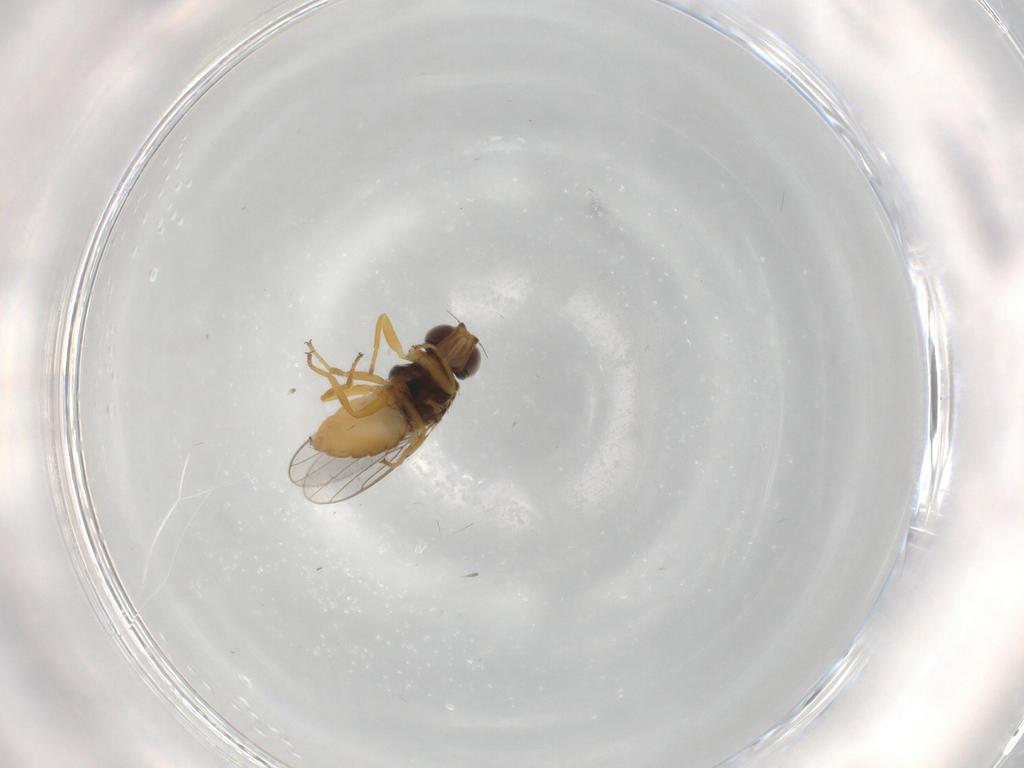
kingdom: Animalia
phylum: Arthropoda
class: Insecta
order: Diptera
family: Chloropidae
